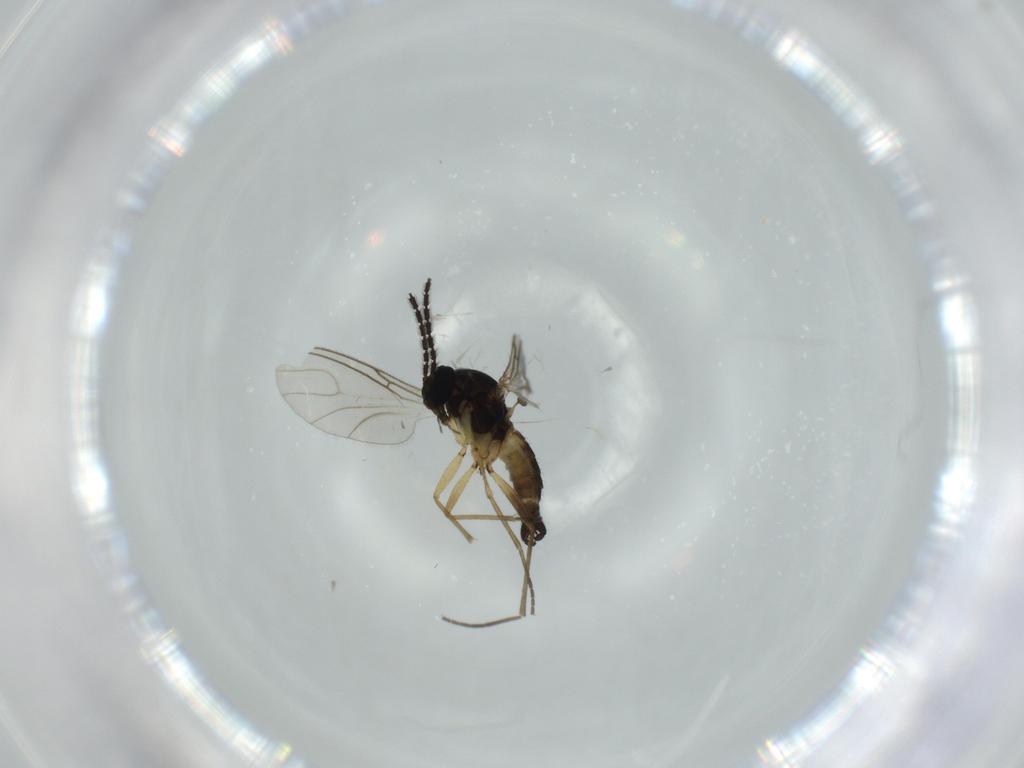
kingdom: Animalia
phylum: Arthropoda
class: Insecta
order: Diptera
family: Sciaridae
